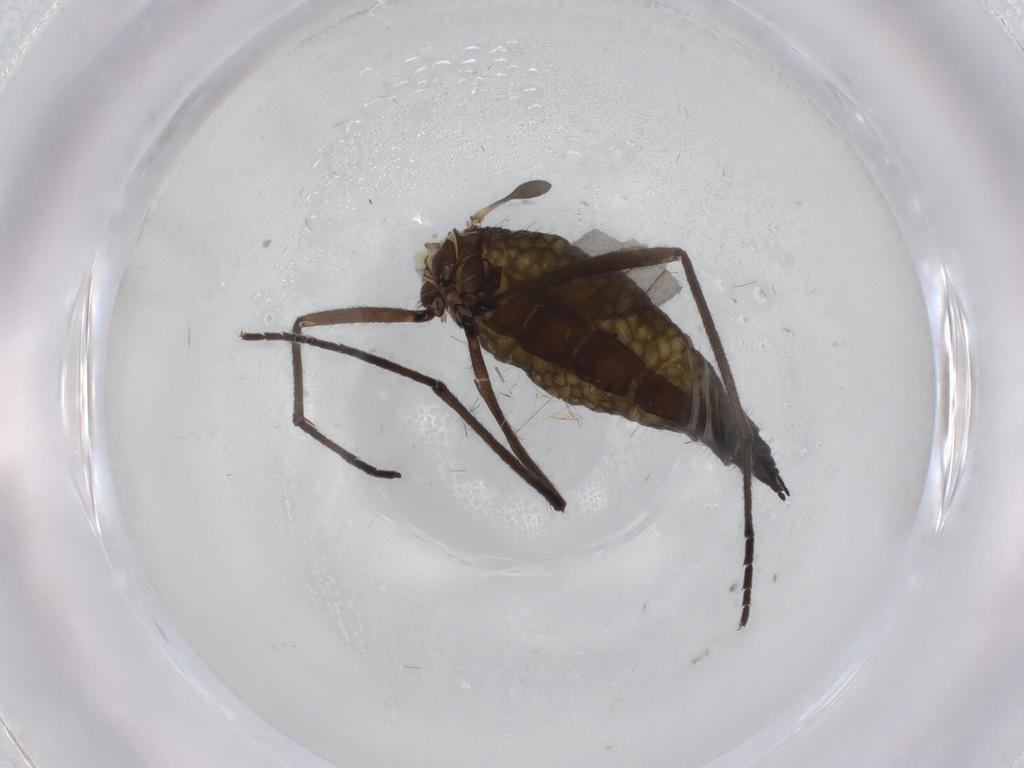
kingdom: Animalia
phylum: Arthropoda
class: Insecta
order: Diptera
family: Sciaridae
